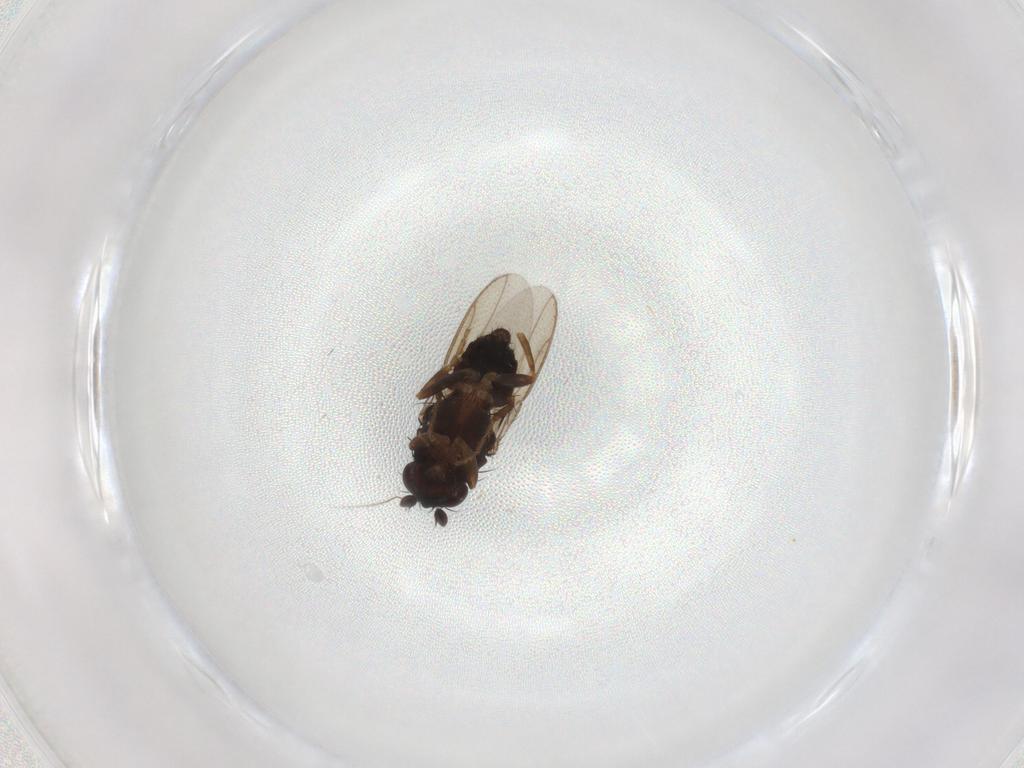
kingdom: Animalia
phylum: Arthropoda
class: Insecta
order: Diptera
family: Sphaeroceridae
